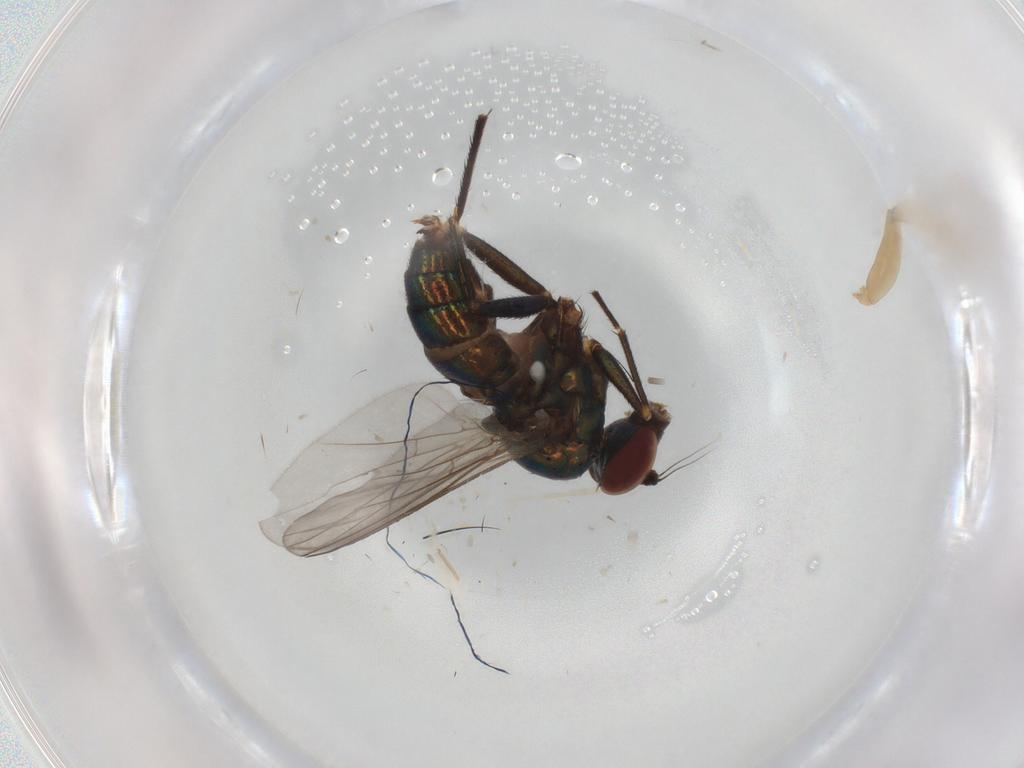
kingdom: Animalia
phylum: Arthropoda
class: Insecta
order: Diptera
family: Dolichopodidae
